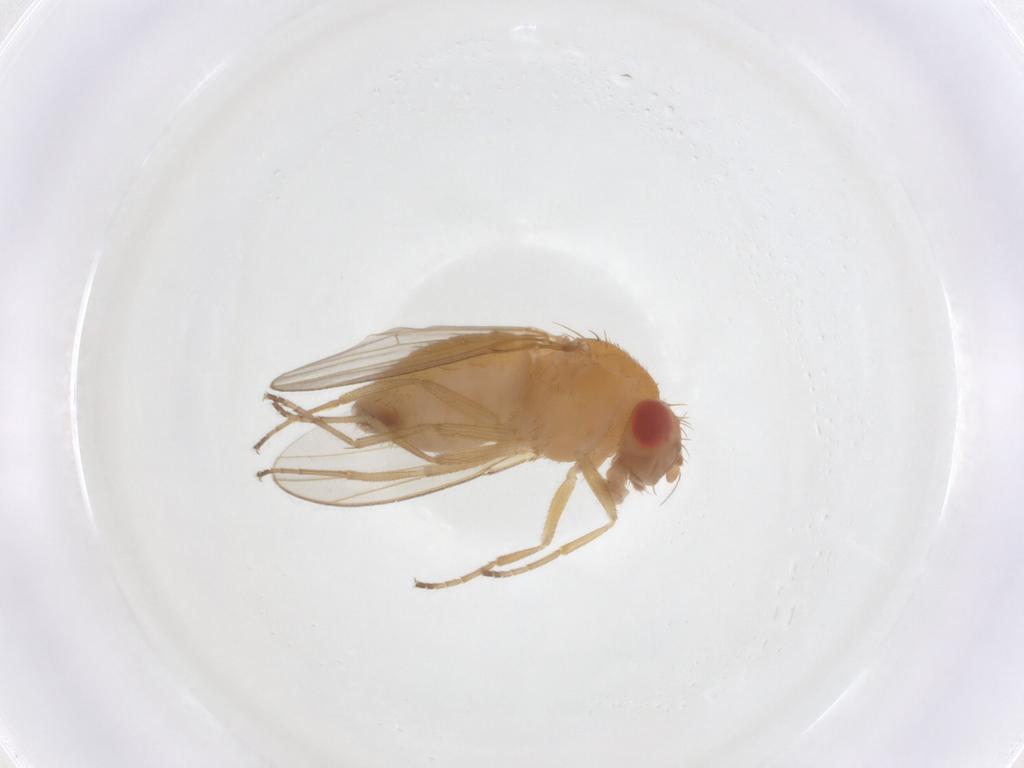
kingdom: Animalia
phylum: Arthropoda
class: Insecta
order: Diptera
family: Drosophilidae
